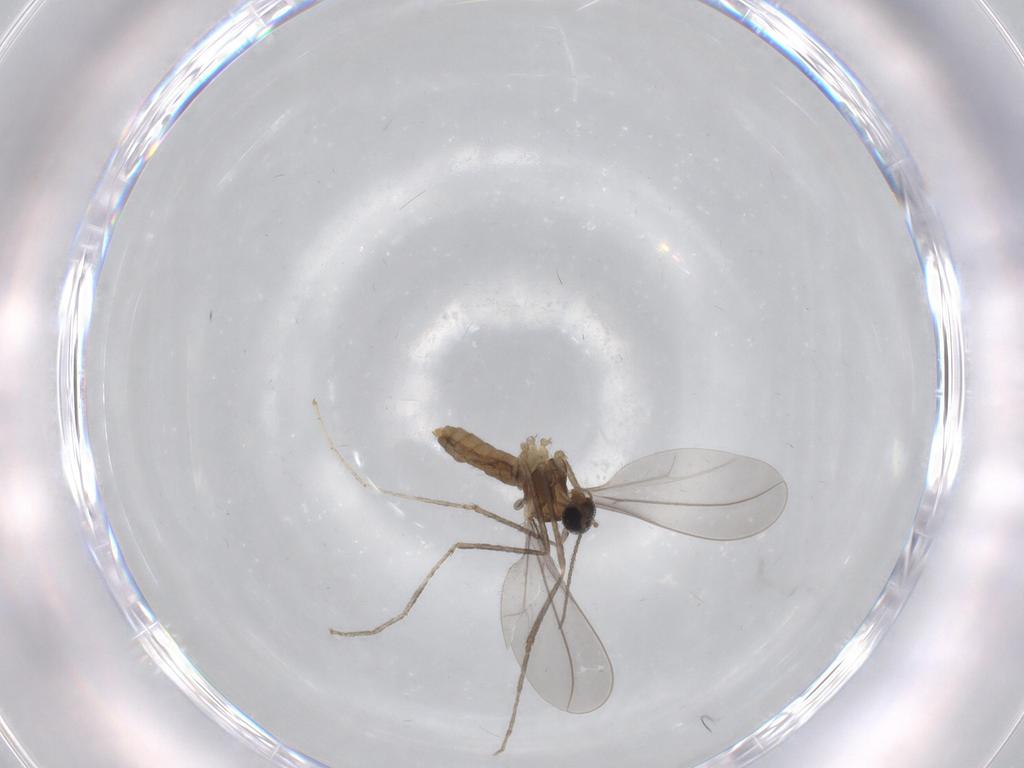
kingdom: Animalia
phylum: Arthropoda
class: Insecta
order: Diptera
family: Cecidomyiidae
